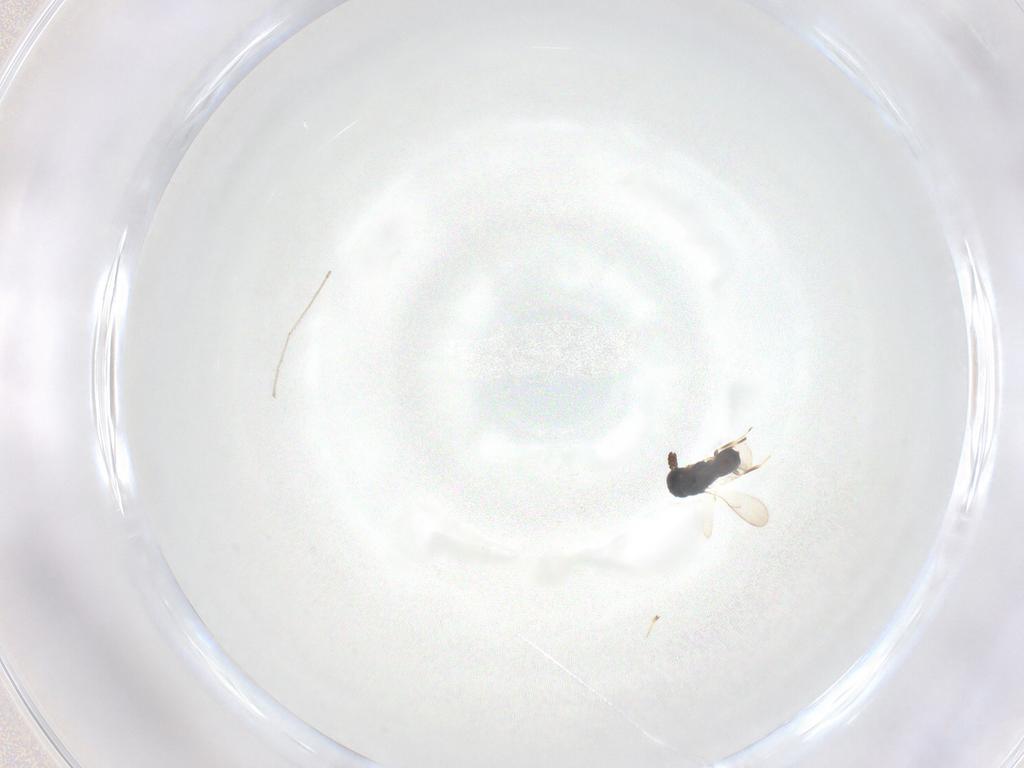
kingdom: Animalia
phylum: Arthropoda
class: Insecta
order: Hymenoptera
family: Scelionidae
